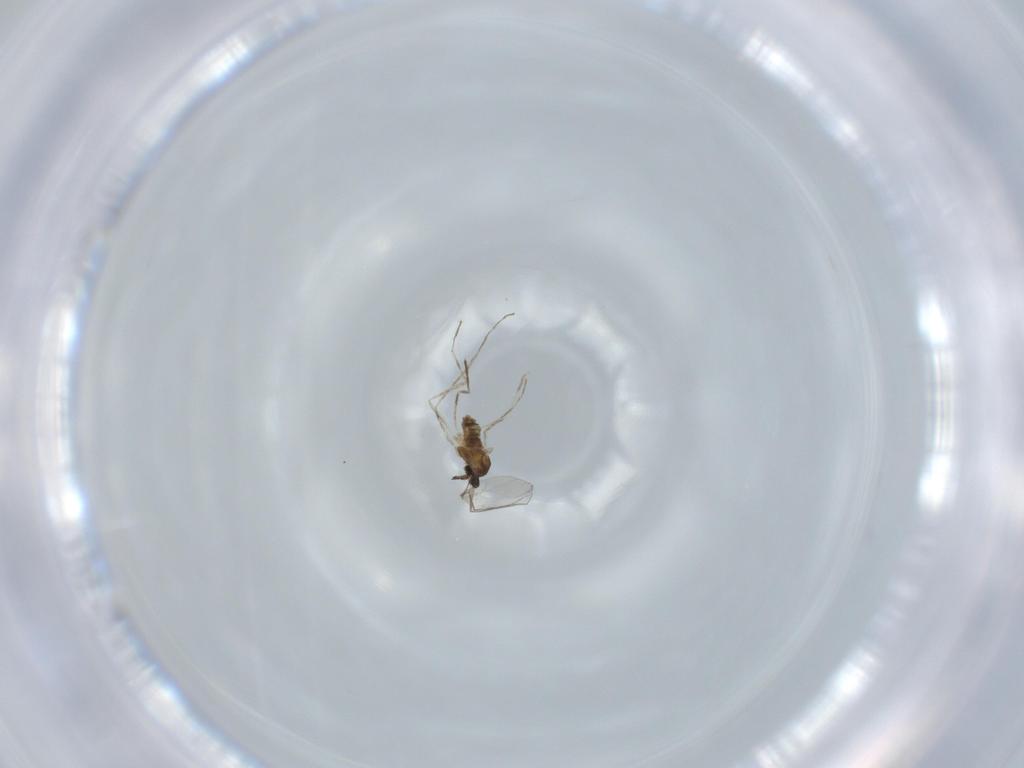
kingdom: Animalia
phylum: Arthropoda
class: Insecta
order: Diptera
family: Cecidomyiidae
